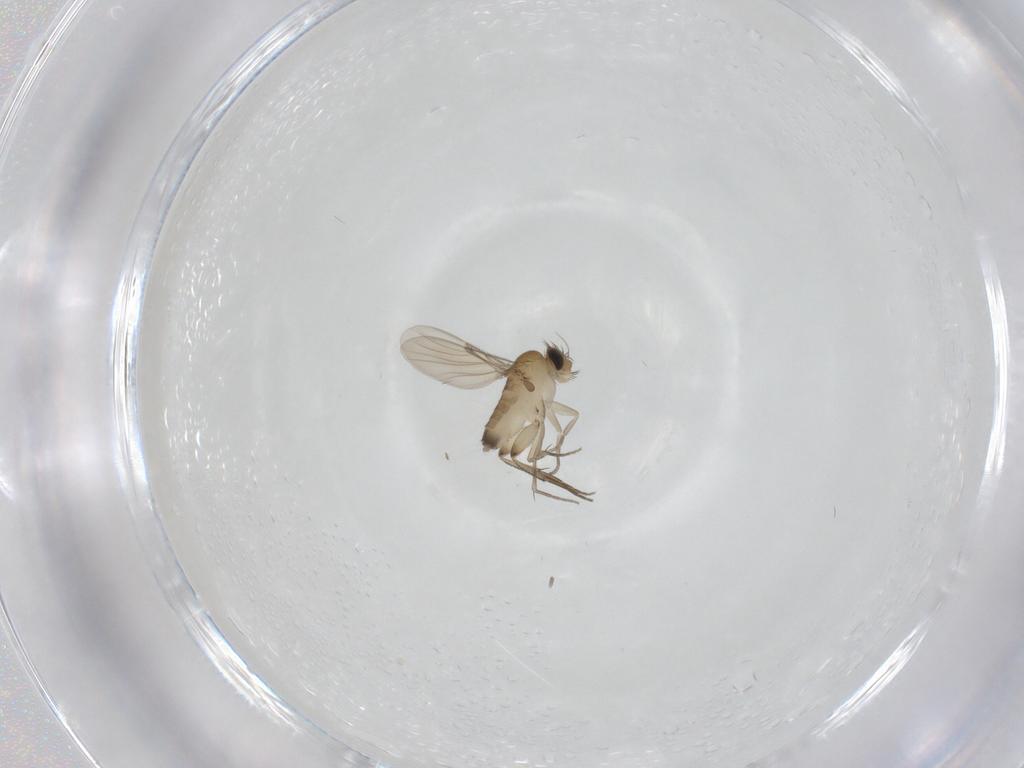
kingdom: Animalia
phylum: Arthropoda
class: Insecta
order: Diptera
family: Phoridae
